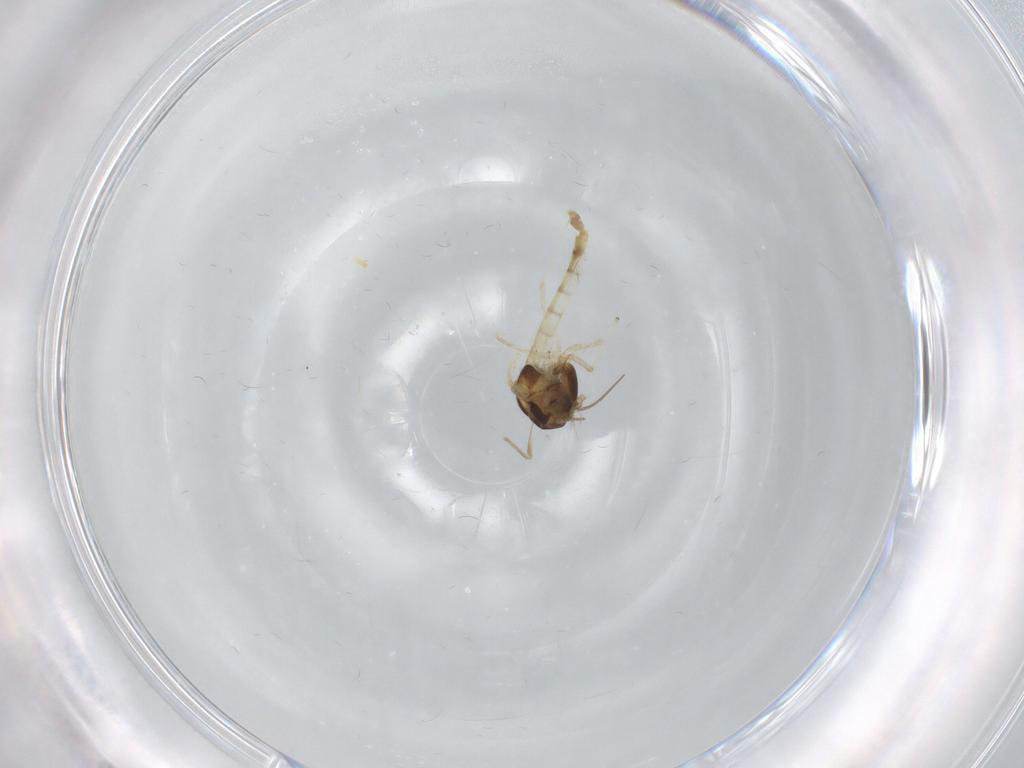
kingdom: Animalia
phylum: Arthropoda
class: Insecta
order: Diptera
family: Chironomidae
